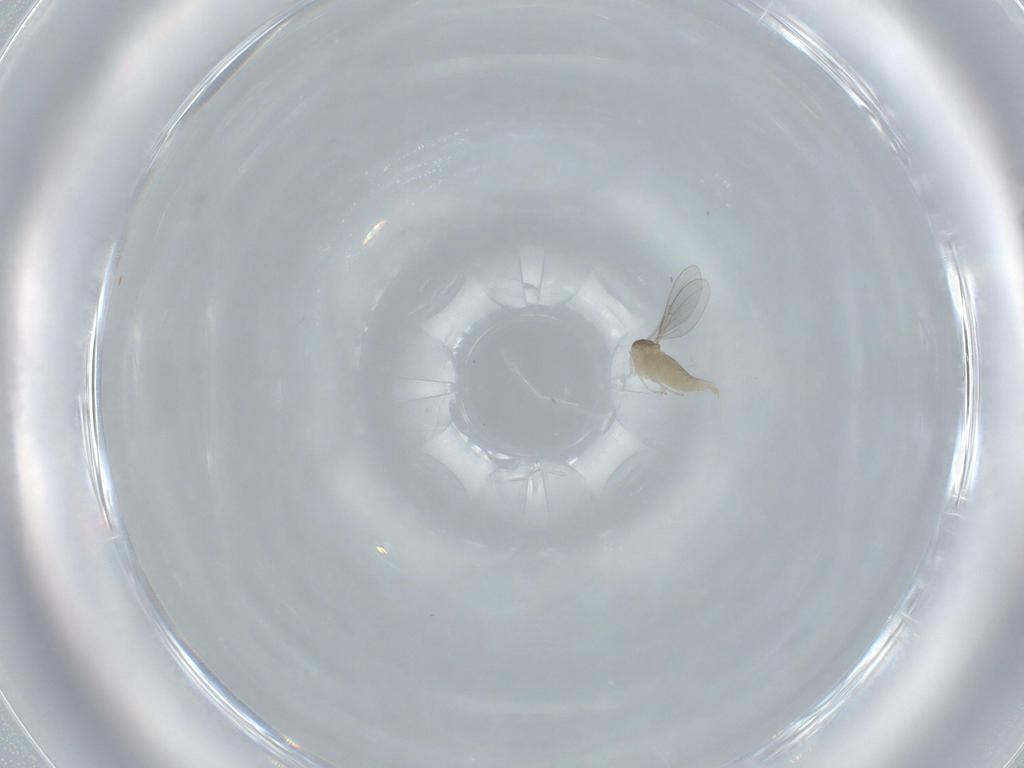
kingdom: Animalia
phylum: Arthropoda
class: Insecta
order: Diptera
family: Cecidomyiidae
